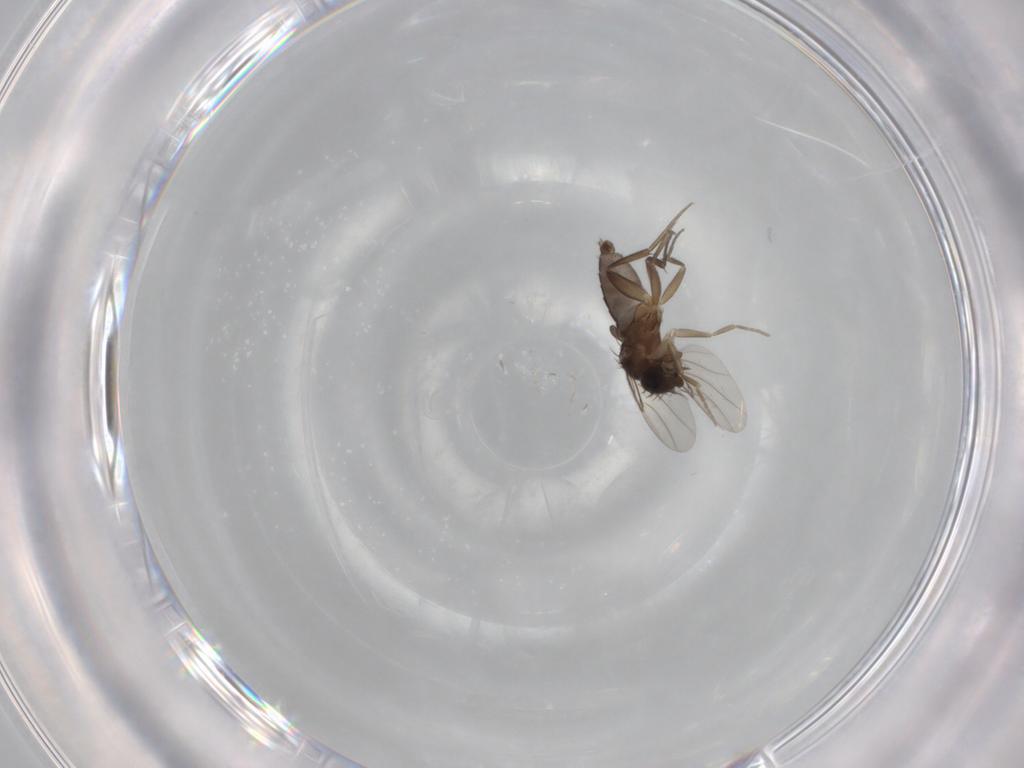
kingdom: Animalia
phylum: Arthropoda
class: Insecta
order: Diptera
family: Phoridae
